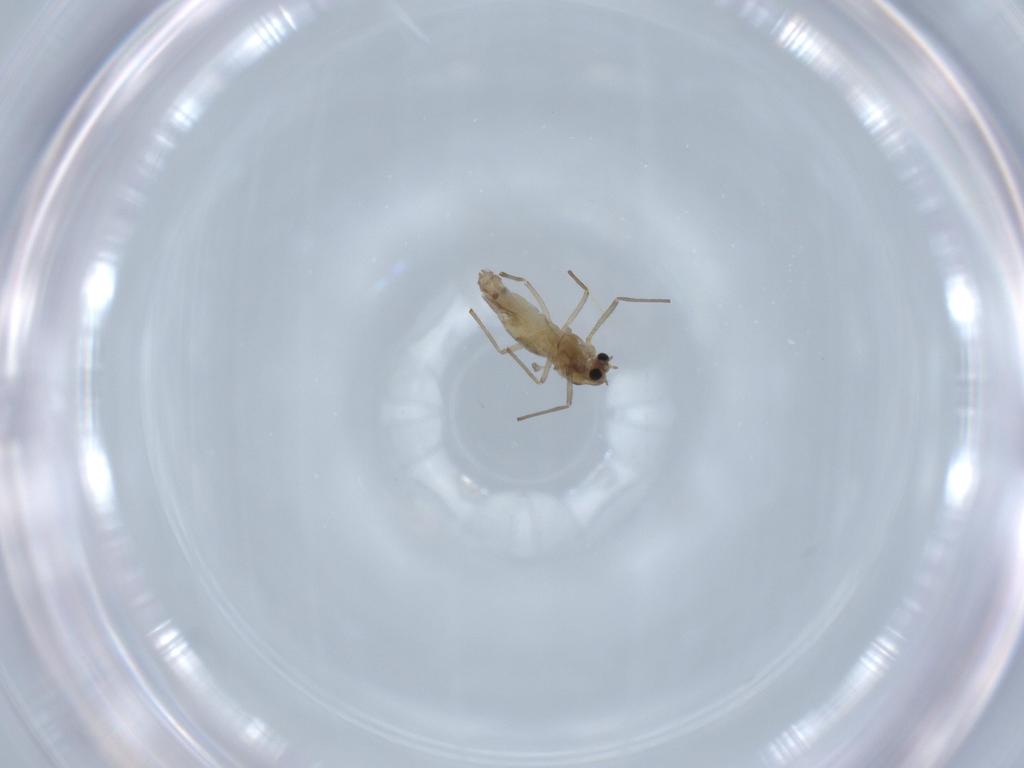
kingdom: Animalia
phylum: Arthropoda
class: Insecta
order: Diptera
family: Chironomidae
